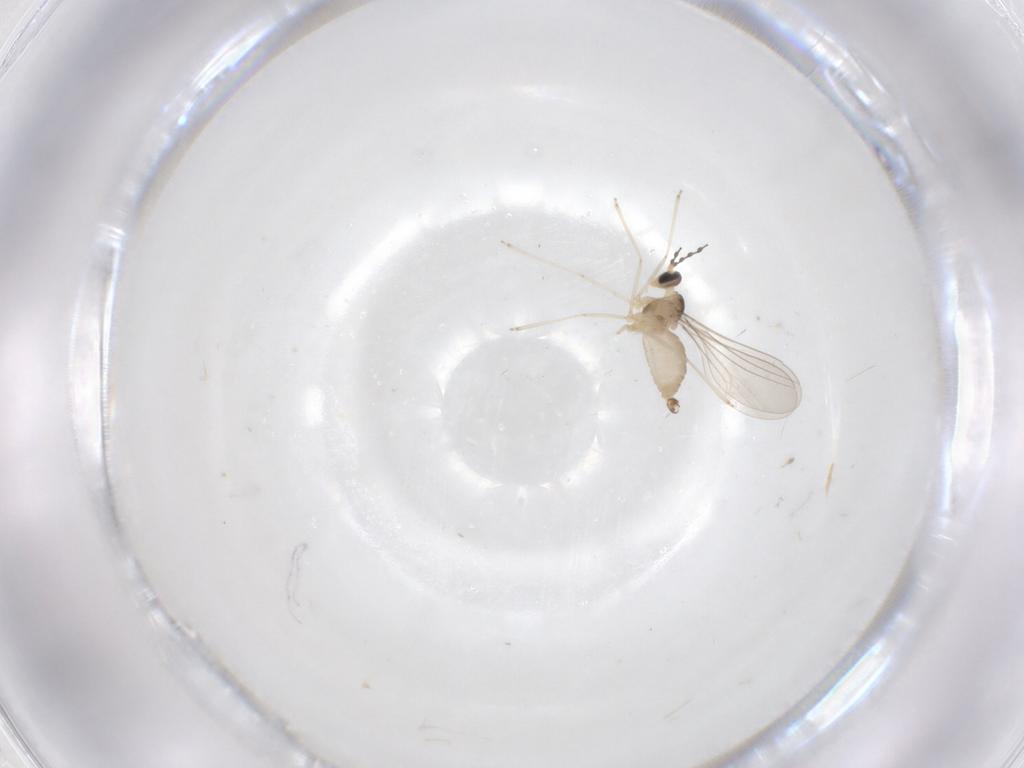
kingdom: Animalia
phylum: Arthropoda
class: Insecta
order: Diptera
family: Cecidomyiidae
